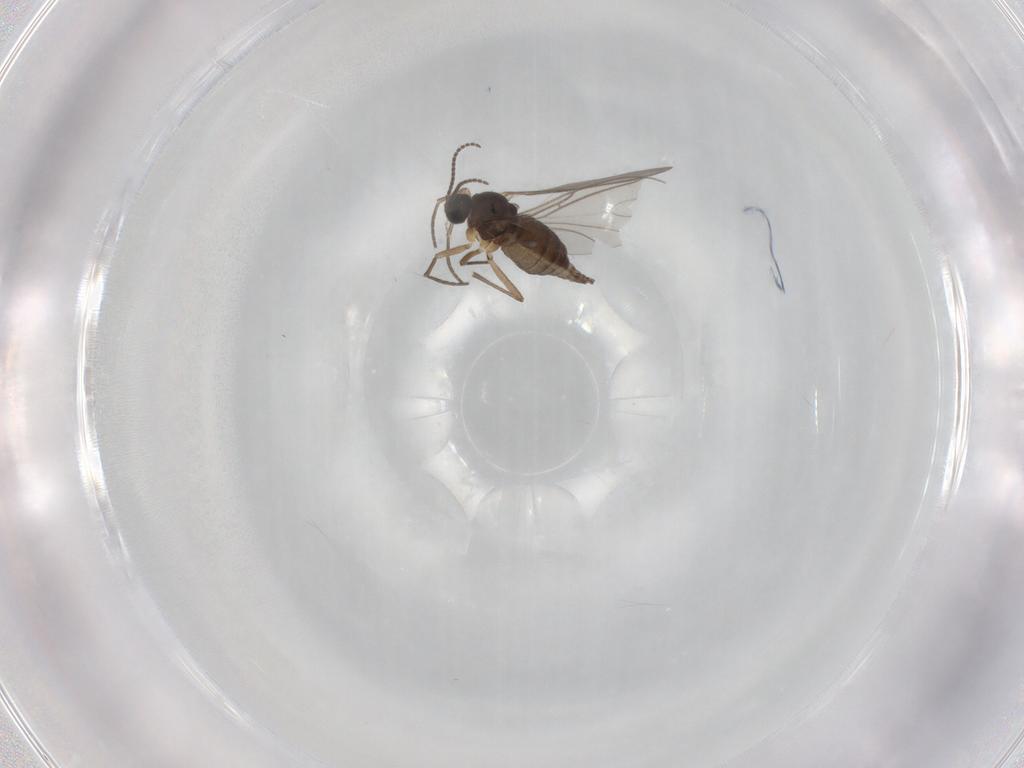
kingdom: Animalia
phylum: Arthropoda
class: Insecta
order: Diptera
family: Sciaridae
